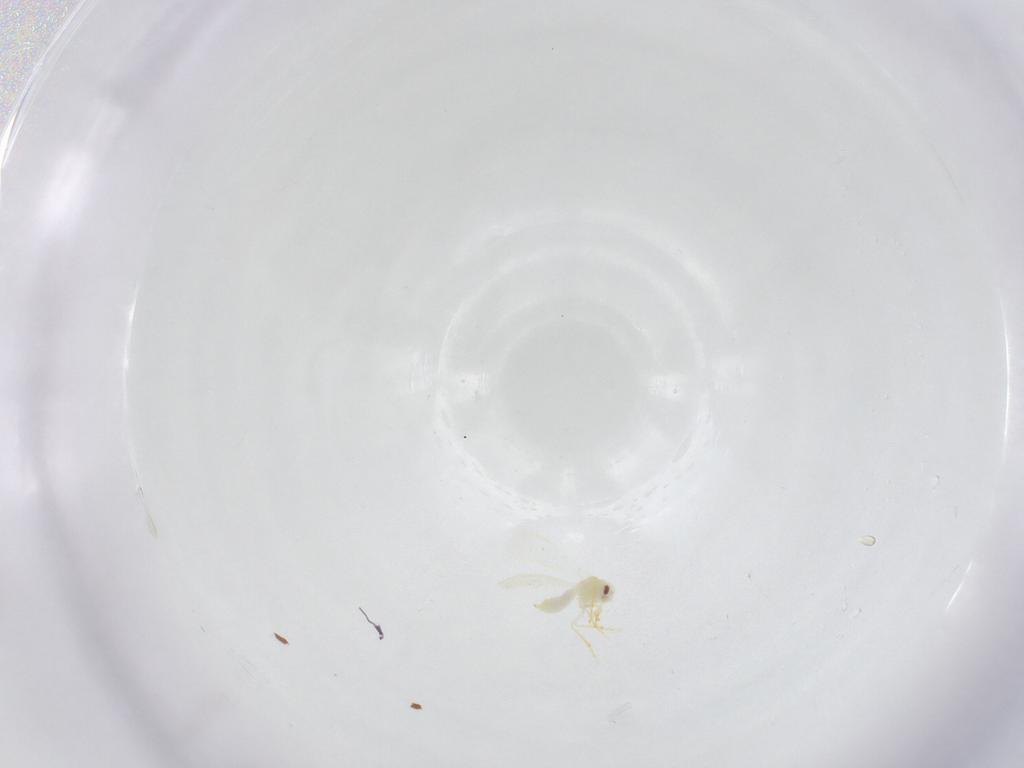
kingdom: Animalia
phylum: Arthropoda
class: Insecta
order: Hemiptera
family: Aleyrodidae
